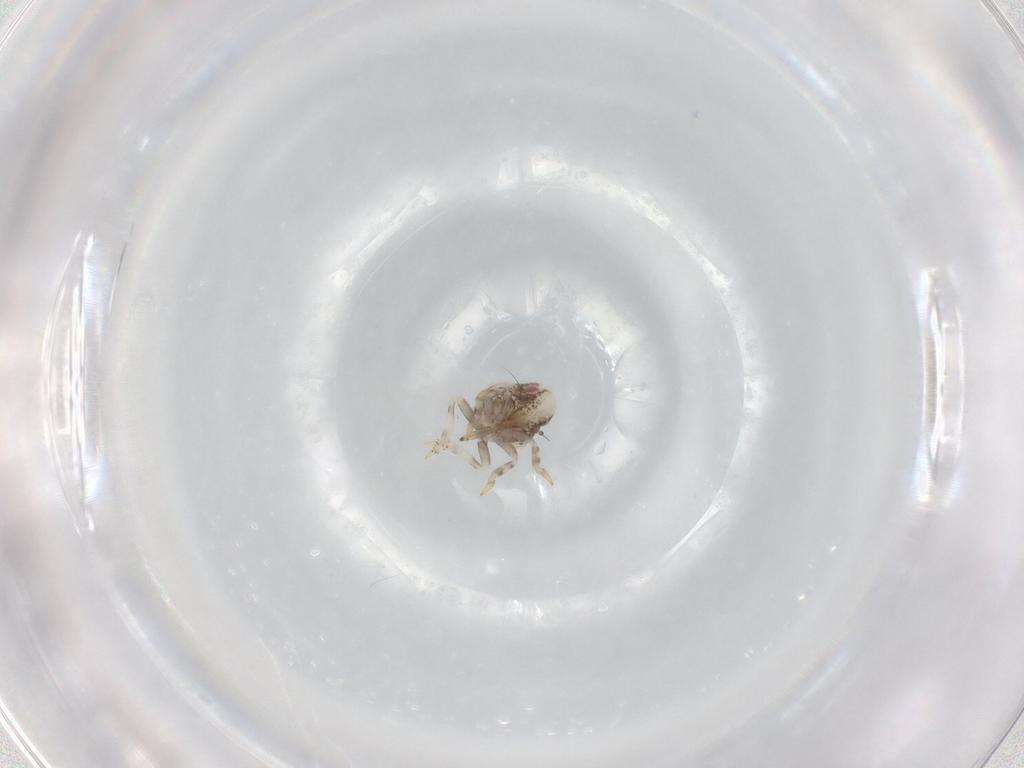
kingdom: Animalia
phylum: Arthropoda
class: Insecta
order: Hemiptera
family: Acanaloniidae
